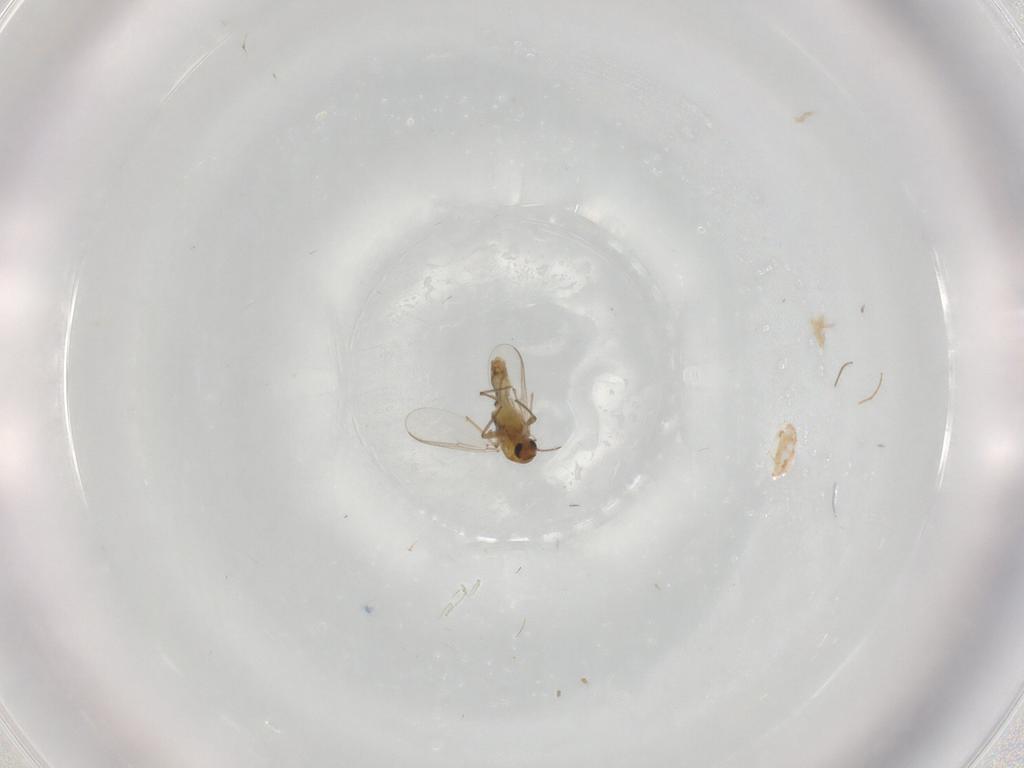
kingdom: Animalia
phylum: Arthropoda
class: Insecta
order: Diptera
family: Chironomidae
